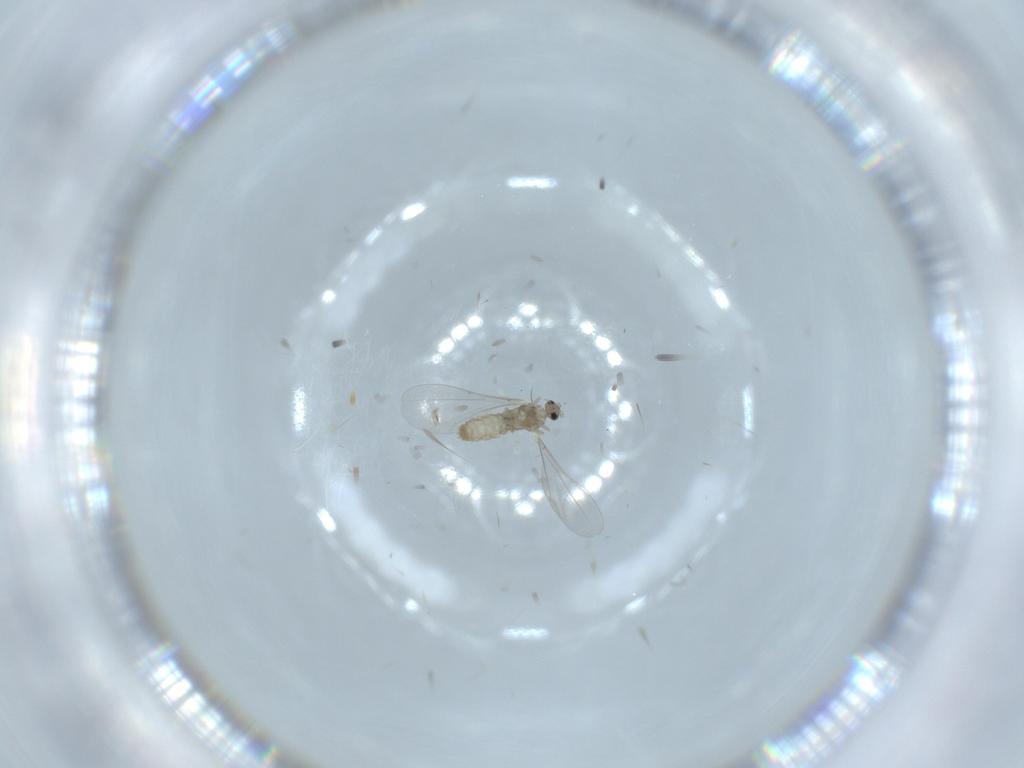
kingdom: Animalia
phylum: Arthropoda
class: Insecta
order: Diptera
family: Cecidomyiidae
